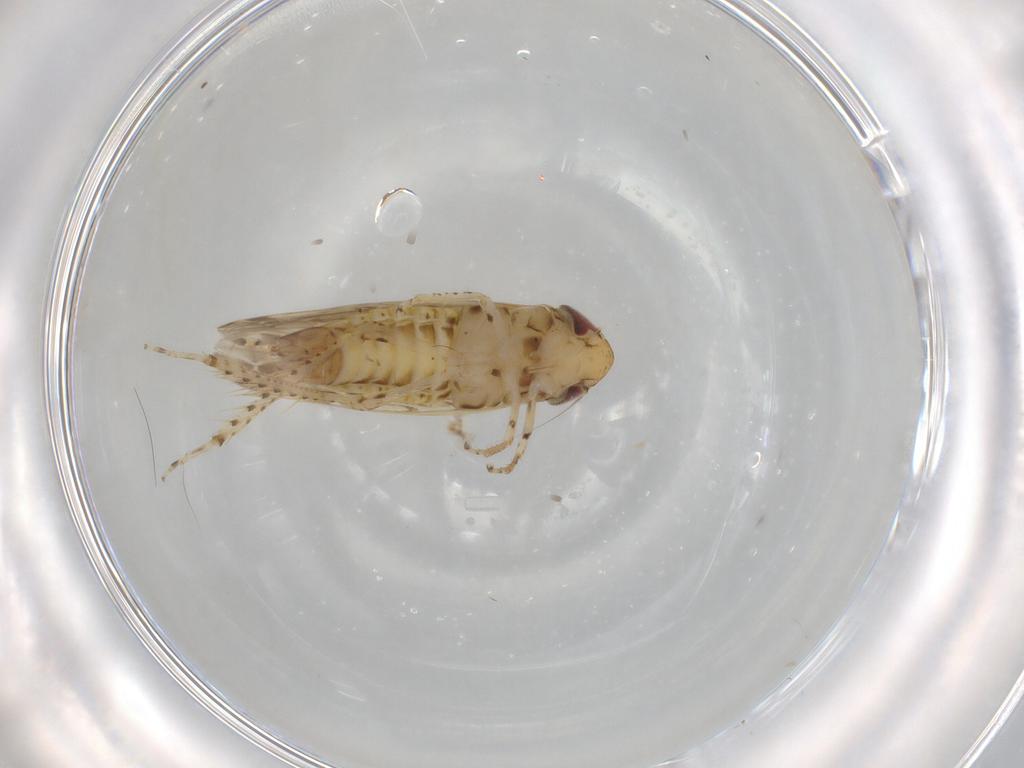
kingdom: Animalia
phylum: Arthropoda
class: Insecta
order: Hemiptera
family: Cicadellidae
